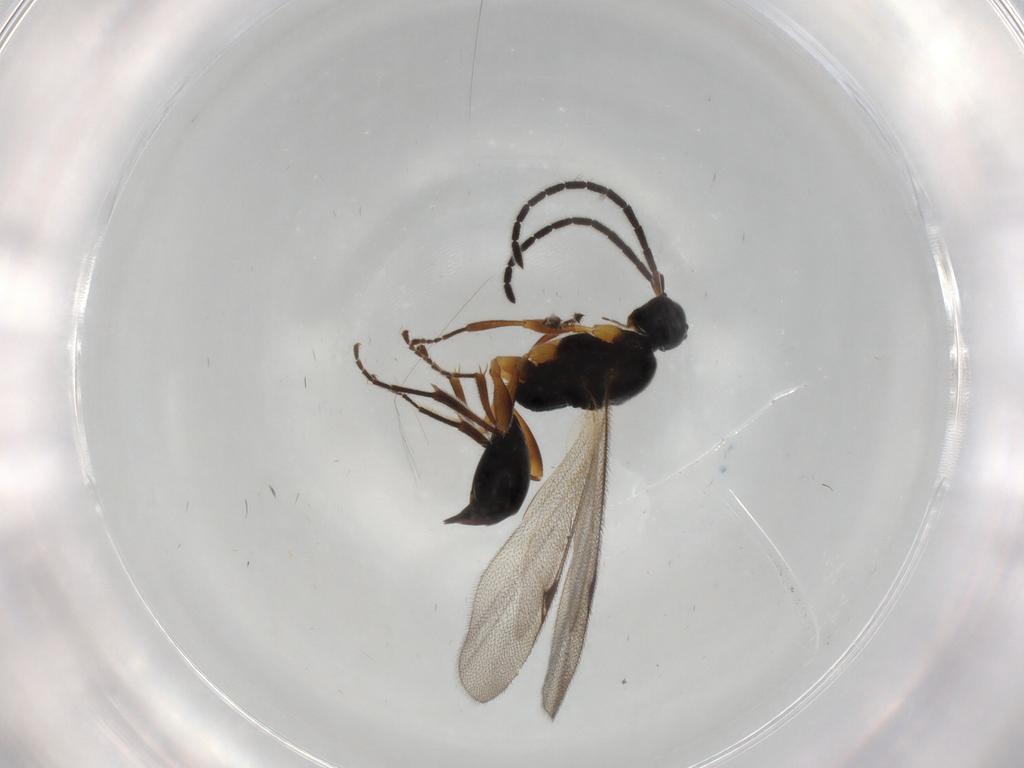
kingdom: Animalia
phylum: Arthropoda
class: Insecta
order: Hymenoptera
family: Proctotrupidae
